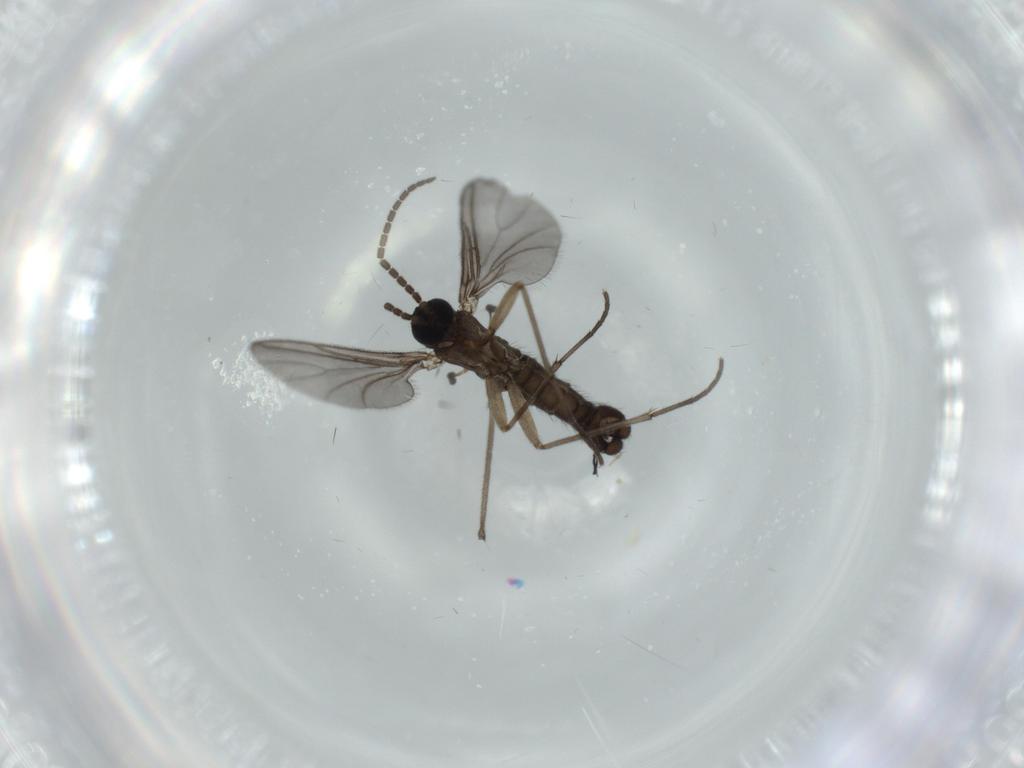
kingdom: Animalia
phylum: Arthropoda
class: Insecta
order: Diptera
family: Sciaridae
